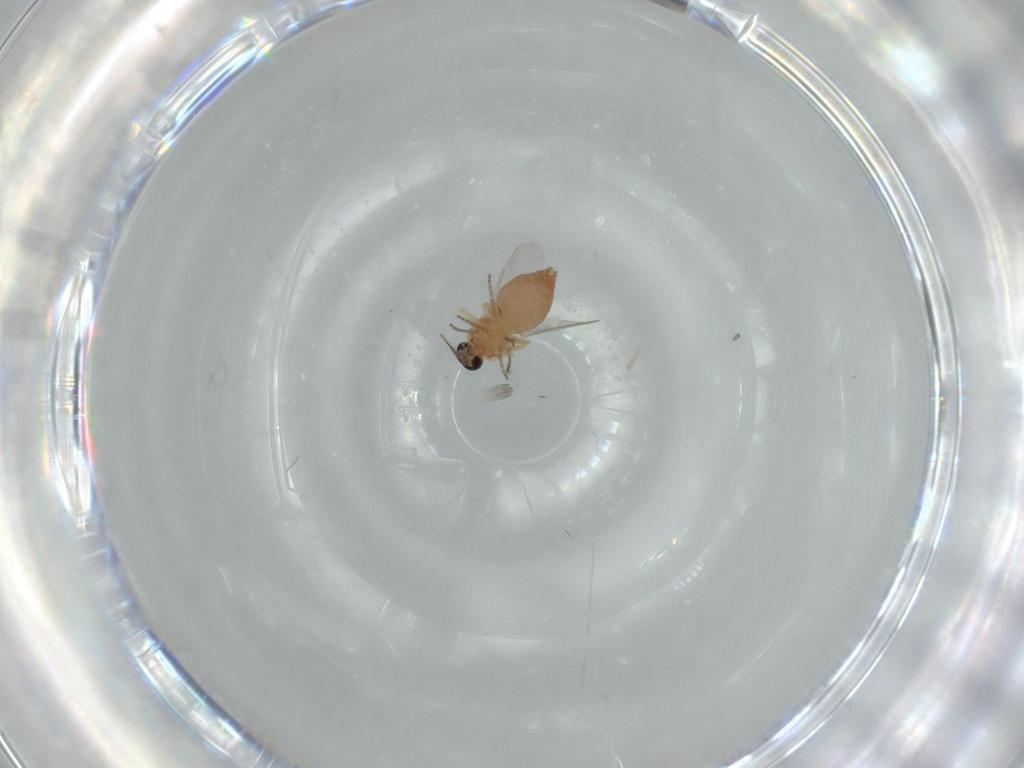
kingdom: Animalia
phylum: Arthropoda
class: Insecta
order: Diptera
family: Ceratopogonidae
